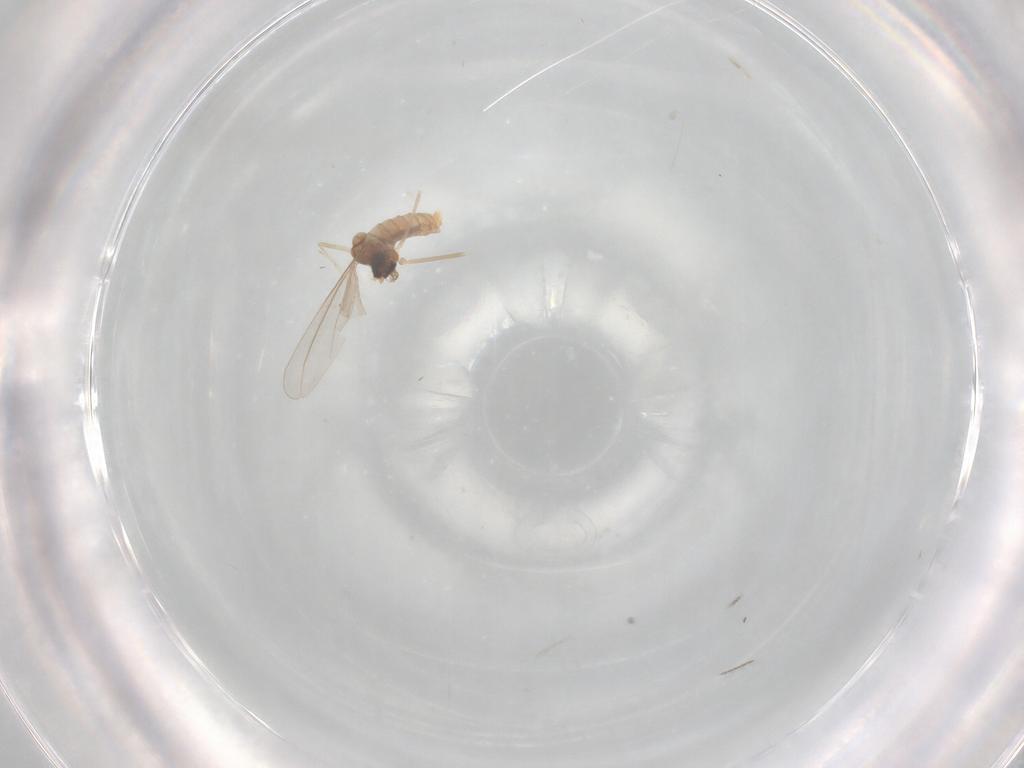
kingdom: Animalia
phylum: Arthropoda
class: Insecta
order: Diptera
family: Cecidomyiidae
